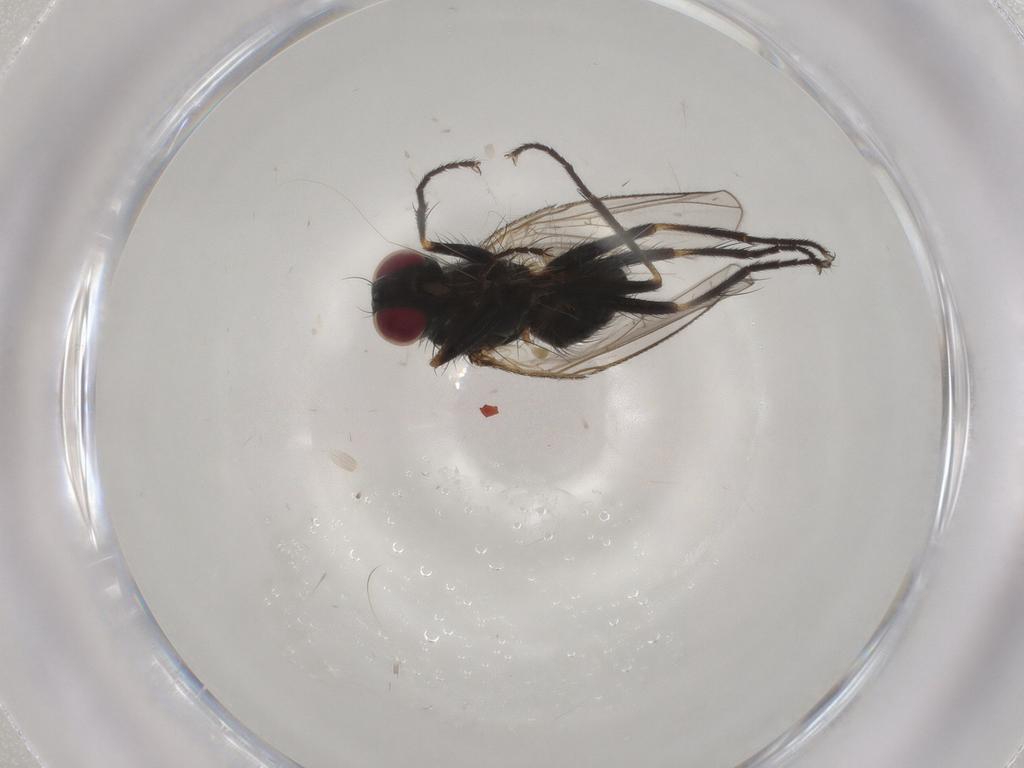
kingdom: Animalia
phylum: Arthropoda
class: Insecta
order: Diptera
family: Muscidae
